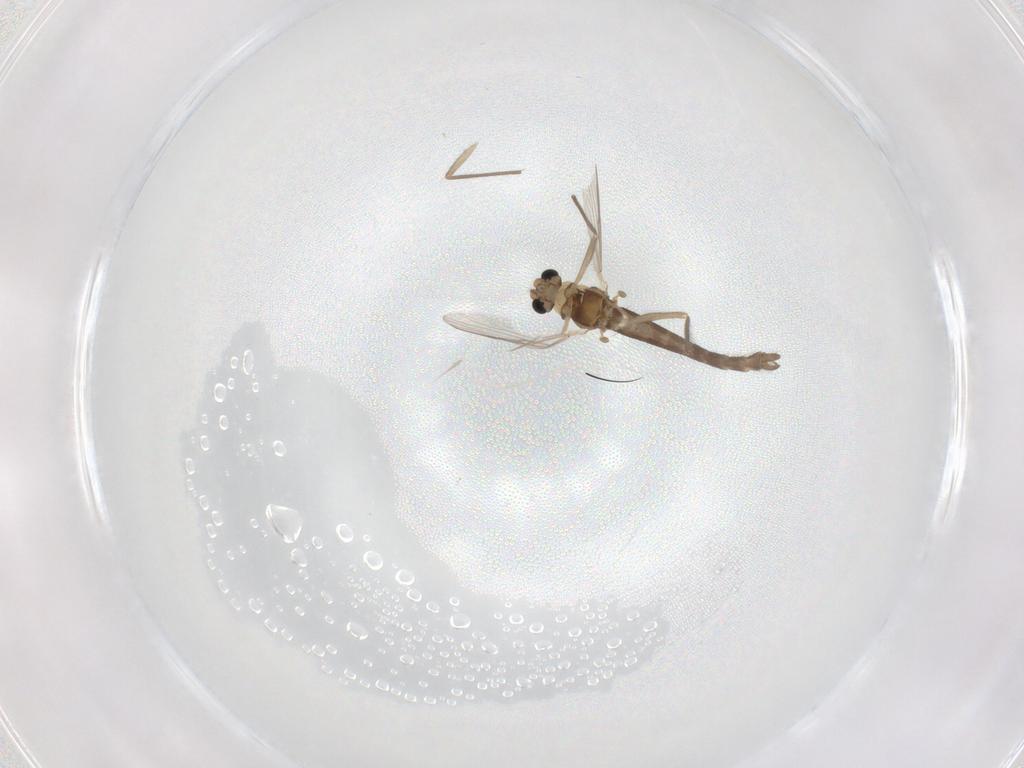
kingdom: Animalia
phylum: Arthropoda
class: Insecta
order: Diptera
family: Chironomidae
